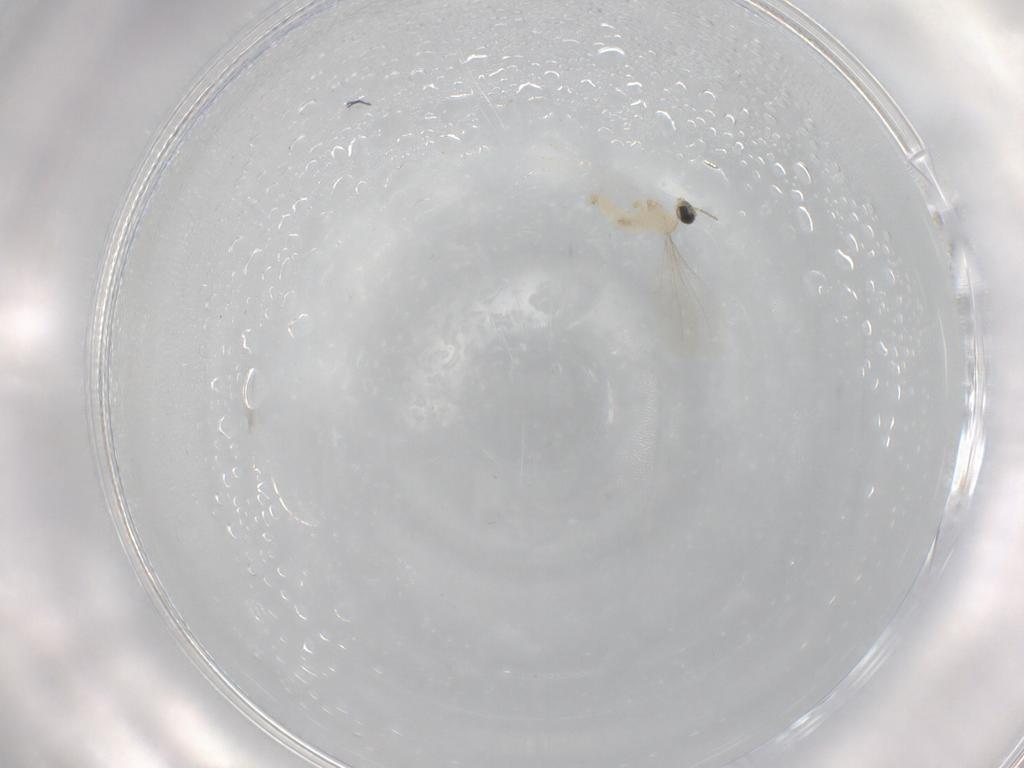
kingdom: Animalia
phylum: Arthropoda
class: Insecta
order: Diptera
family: Cecidomyiidae
